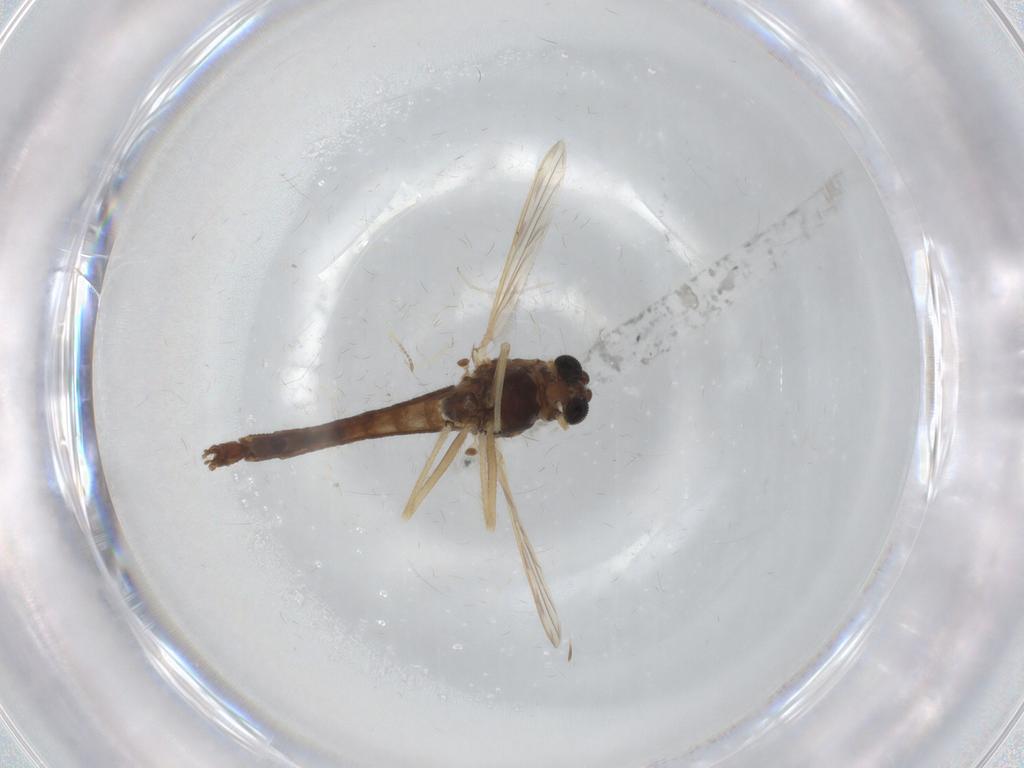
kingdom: Animalia
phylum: Arthropoda
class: Insecta
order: Diptera
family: Chironomidae
